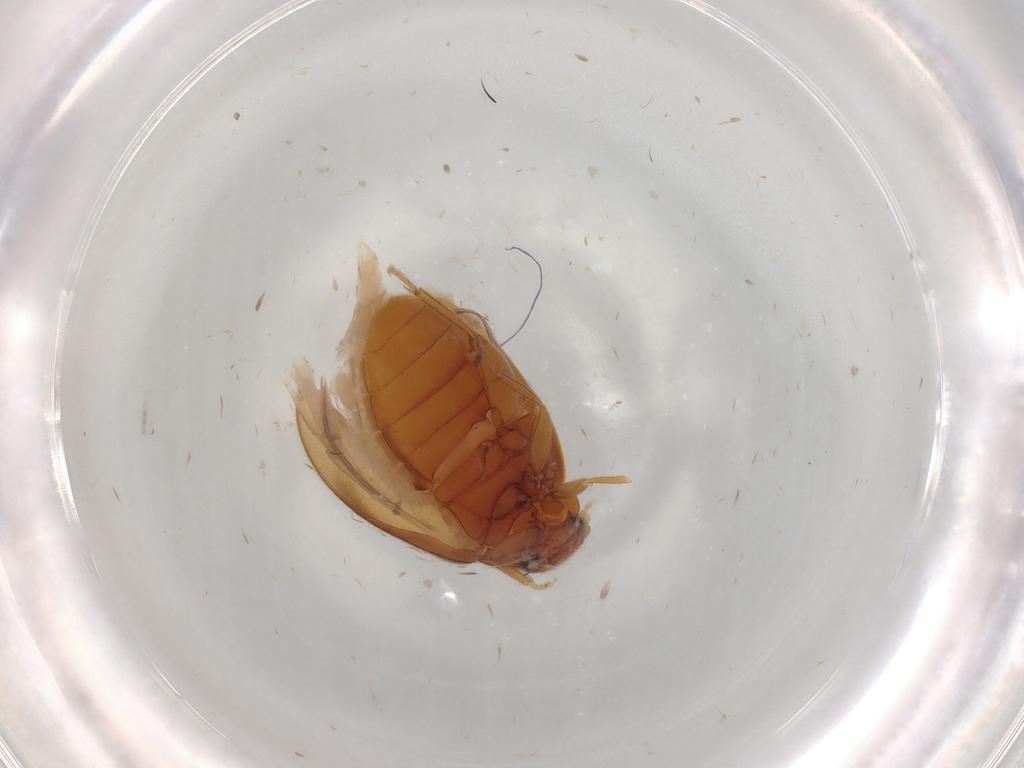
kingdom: Animalia
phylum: Arthropoda
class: Insecta
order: Coleoptera
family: Scirtidae
